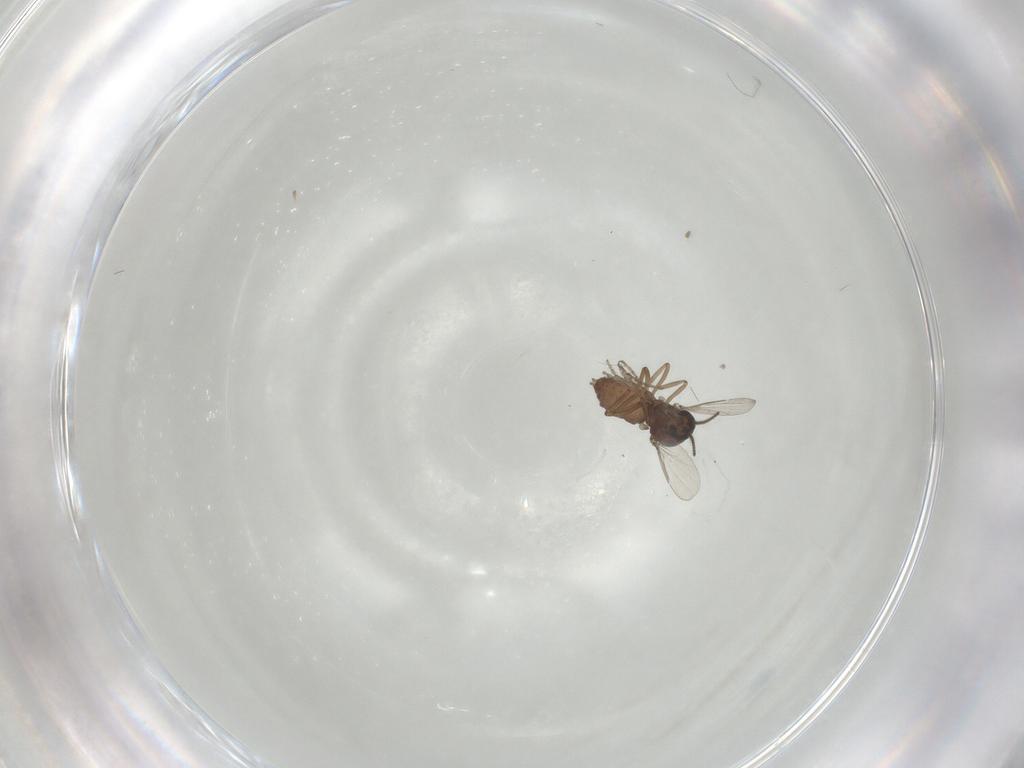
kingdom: Animalia
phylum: Arthropoda
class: Insecta
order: Diptera
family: Ceratopogonidae
